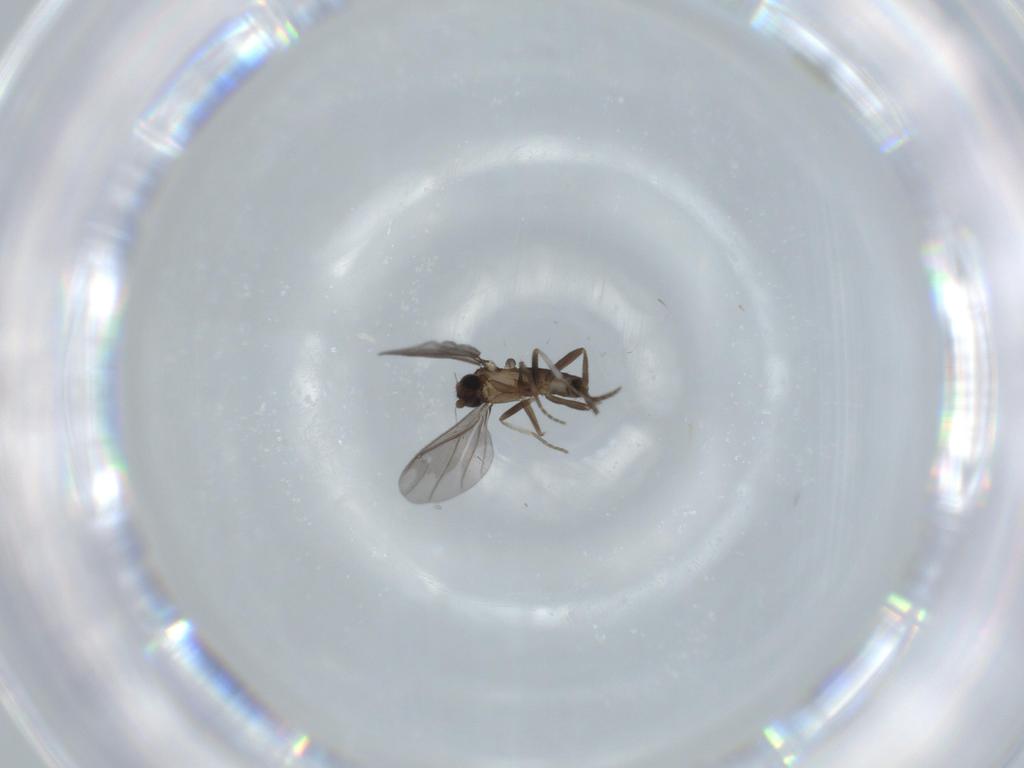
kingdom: Animalia
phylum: Arthropoda
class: Insecta
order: Diptera
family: Phoridae
